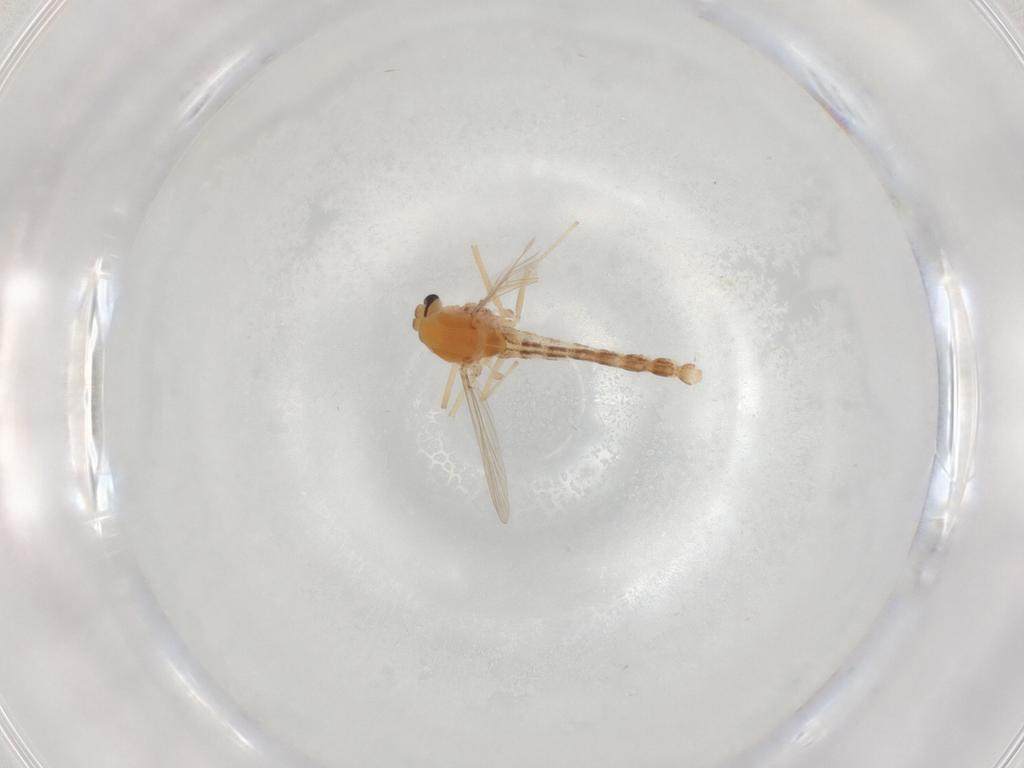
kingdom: Animalia
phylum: Arthropoda
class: Insecta
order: Diptera
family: Chironomidae
